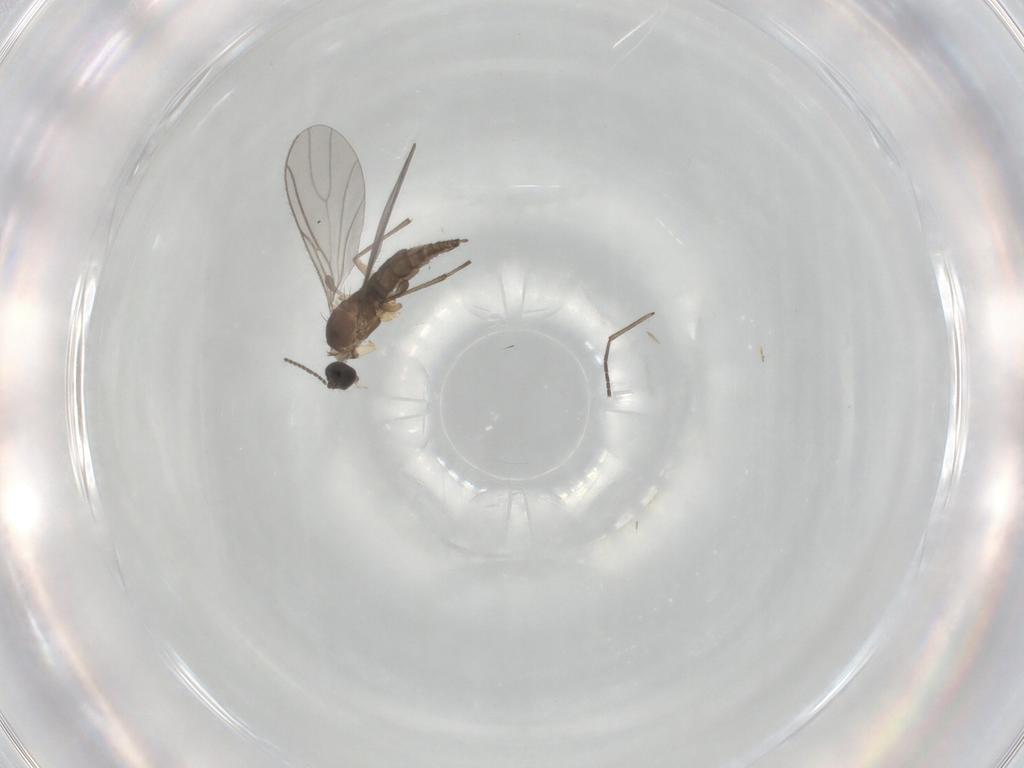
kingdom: Animalia
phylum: Arthropoda
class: Insecta
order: Diptera
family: Sciaridae
